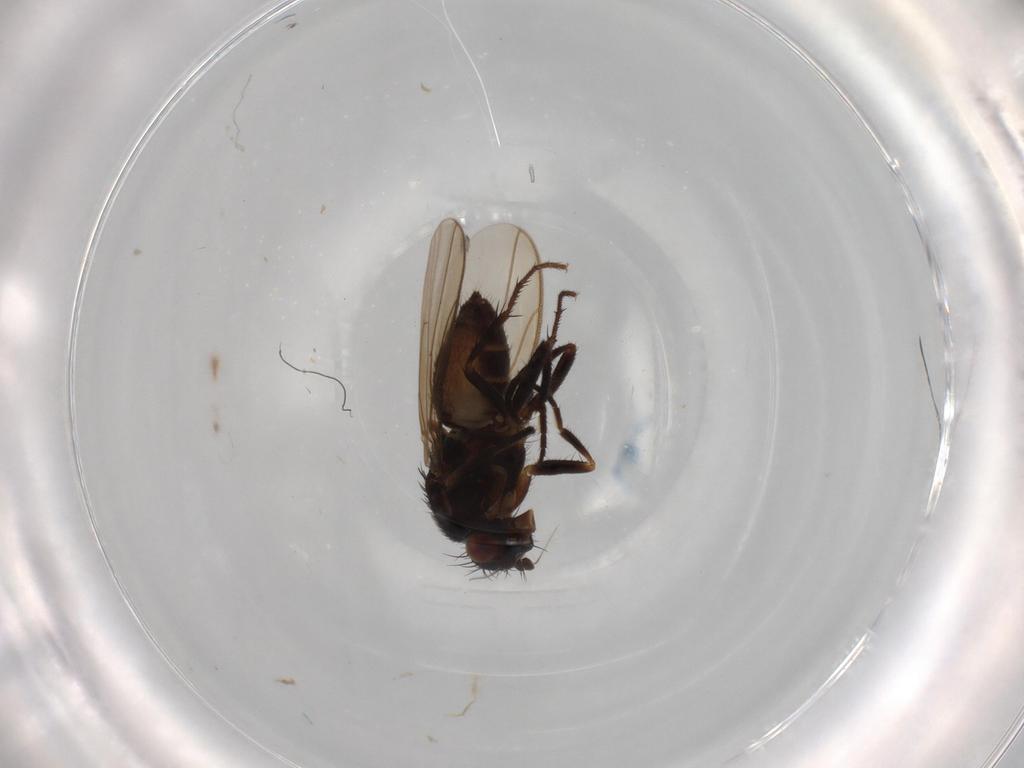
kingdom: Animalia
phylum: Arthropoda
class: Insecta
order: Diptera
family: Sphaeroceridae
